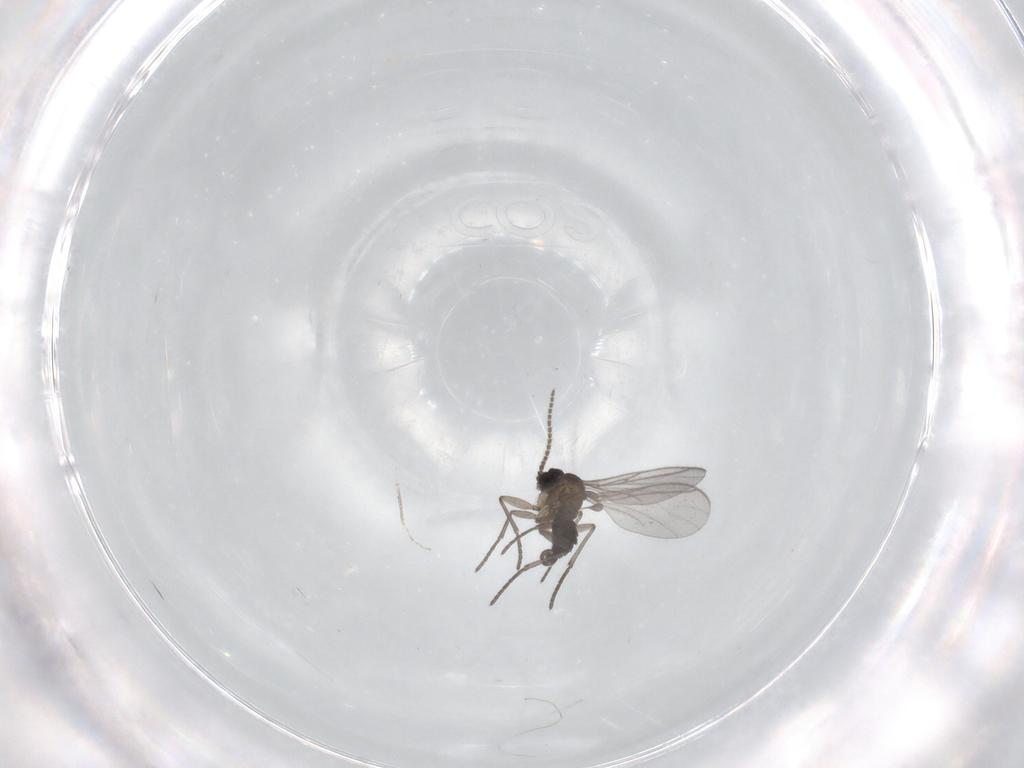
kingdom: Animalia
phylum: Arthropoda
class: Insecta
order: Diptera
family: Cecidomyiidae
